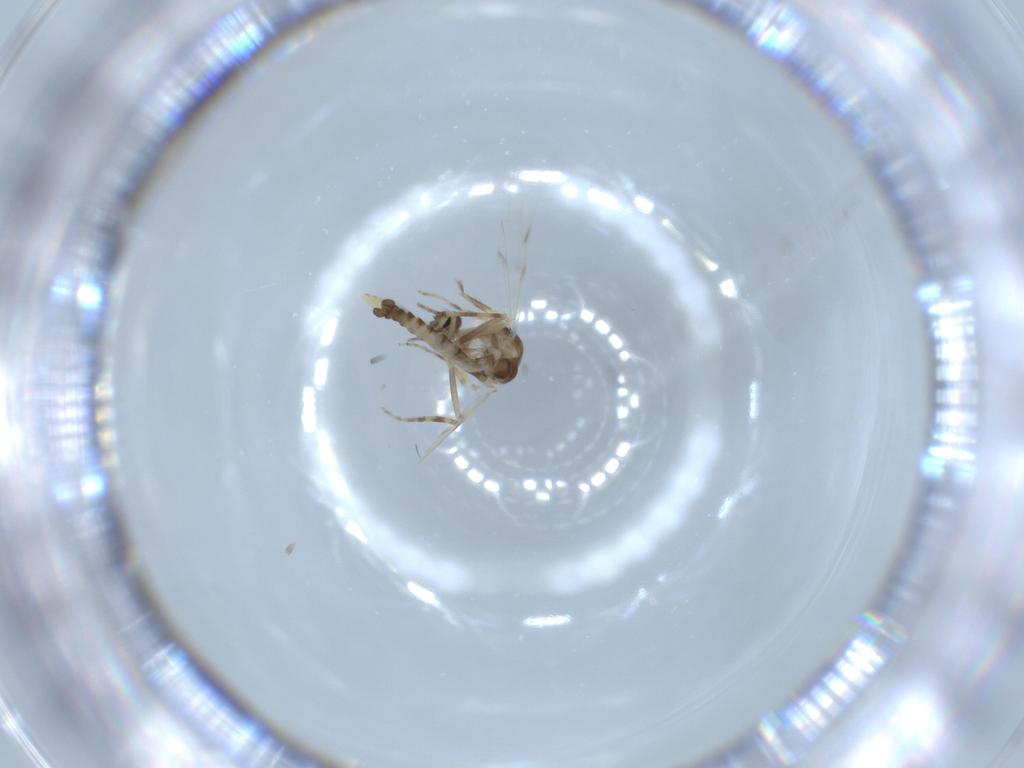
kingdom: Animalia
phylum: Arthropoda
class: Insecta
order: Diptera
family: Ceratopogonidae
